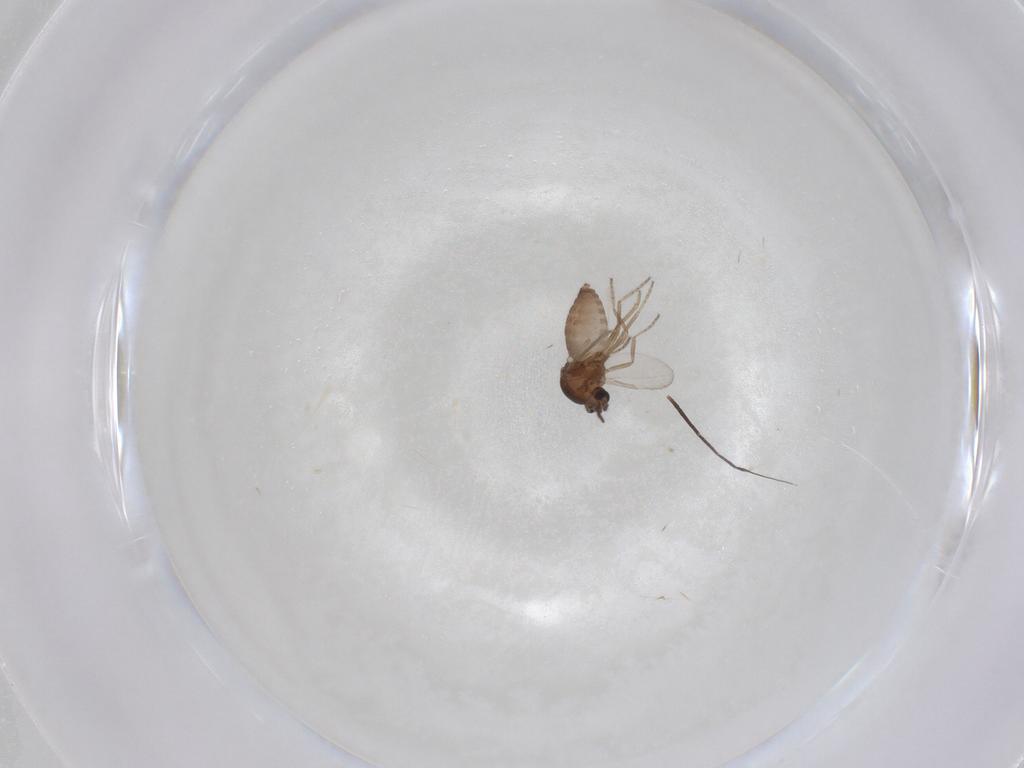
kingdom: Animalia
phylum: Arthropoda
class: Insecta
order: Diptera
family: Ceratopogonidae
